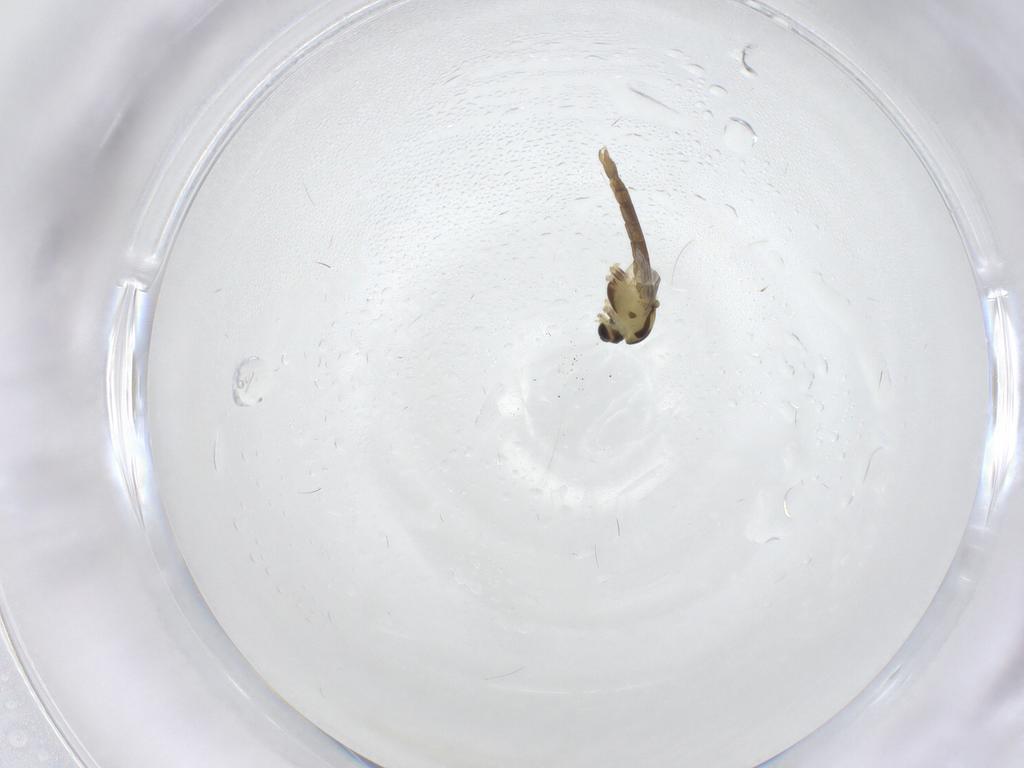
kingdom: Animalia
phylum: Arthropoda
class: Insecta
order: Diptera
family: Chironomidae
